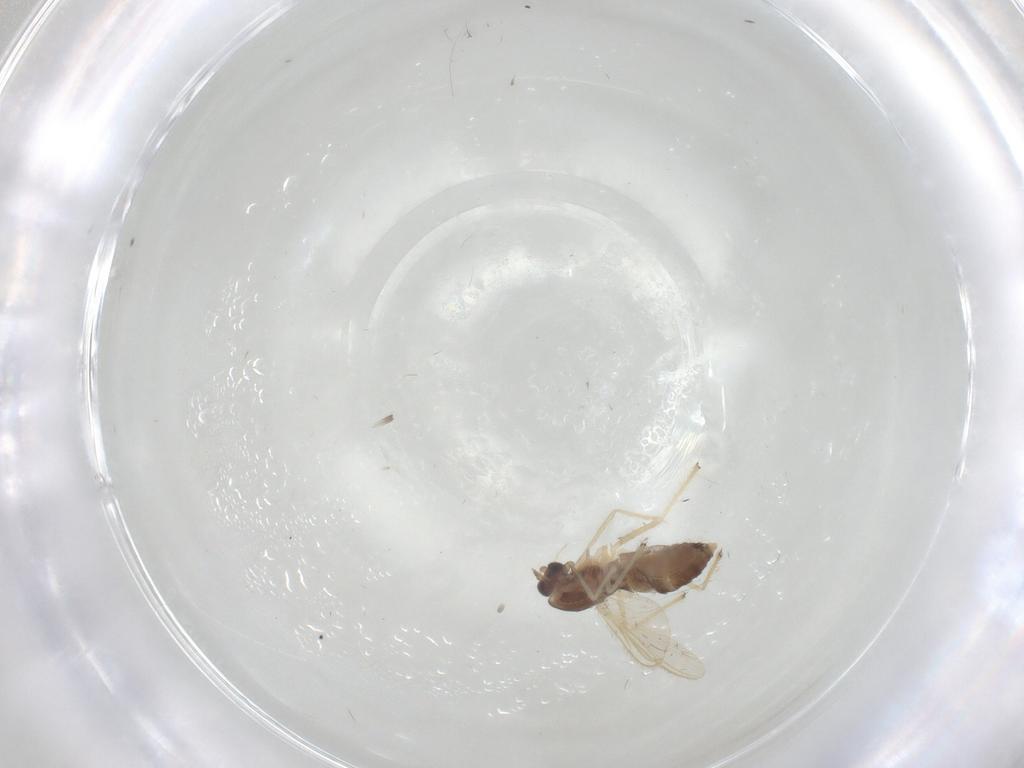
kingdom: Animalia
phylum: Arthropoda
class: Insecta
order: Diptera
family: Chironomidae
